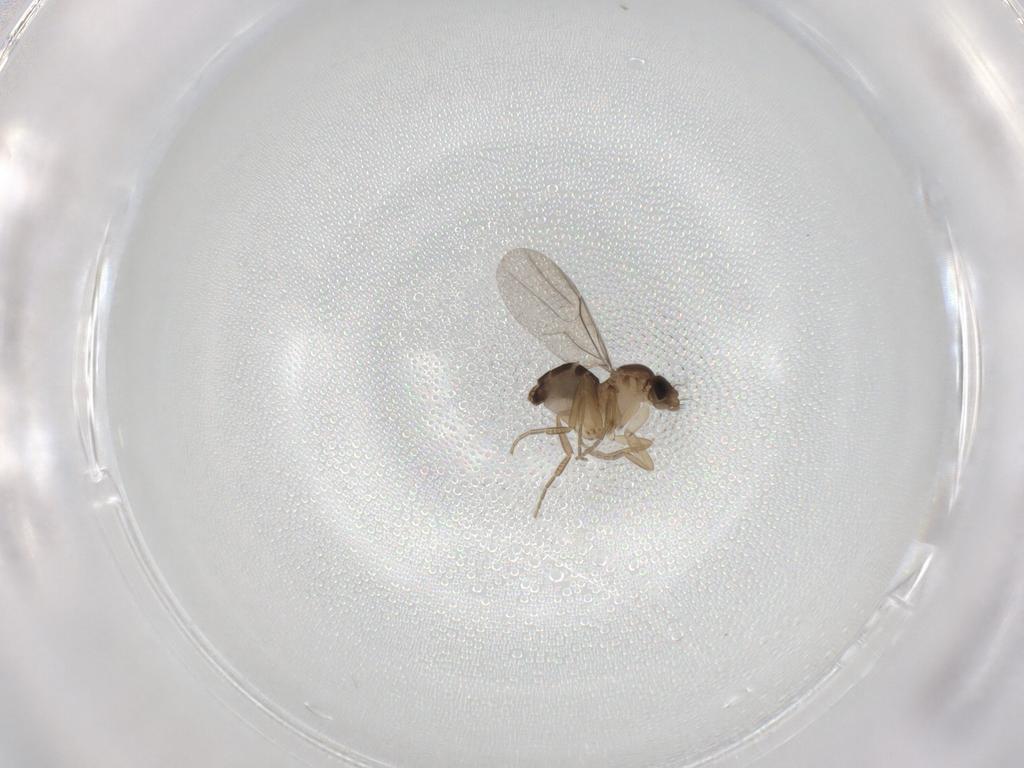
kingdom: Animalia
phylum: Arthropoda
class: Insecta
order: Diptera
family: Phoridae
